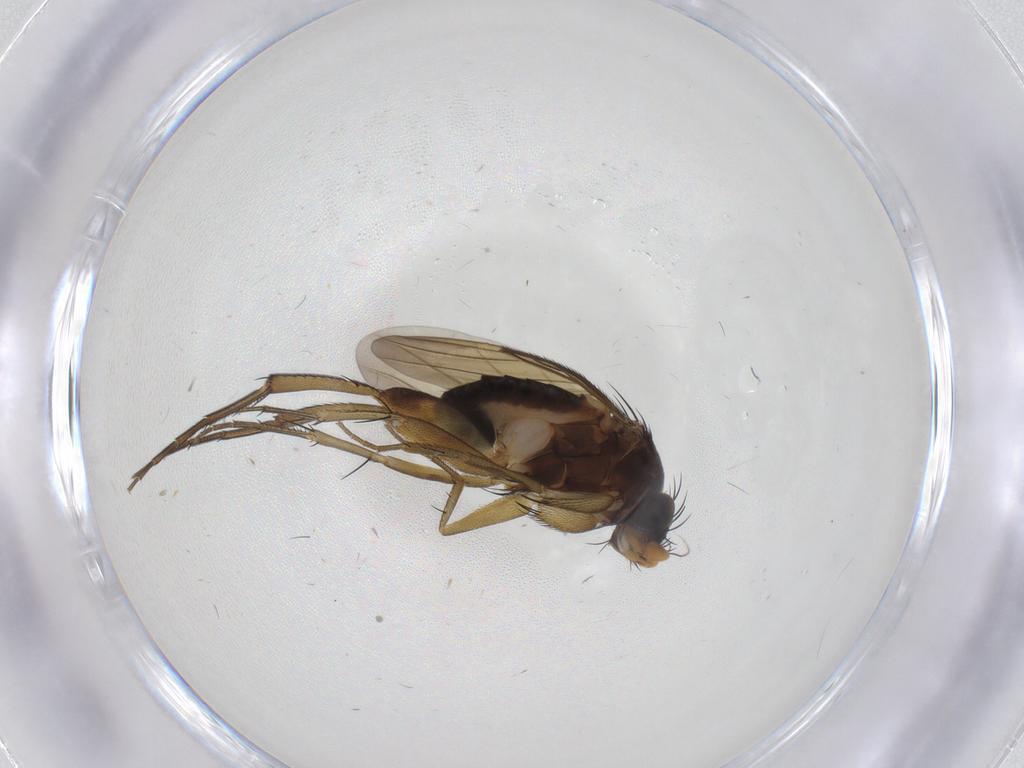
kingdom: Animalia
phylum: Arthropoda
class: Insecta
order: Diptera
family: Phoridae
